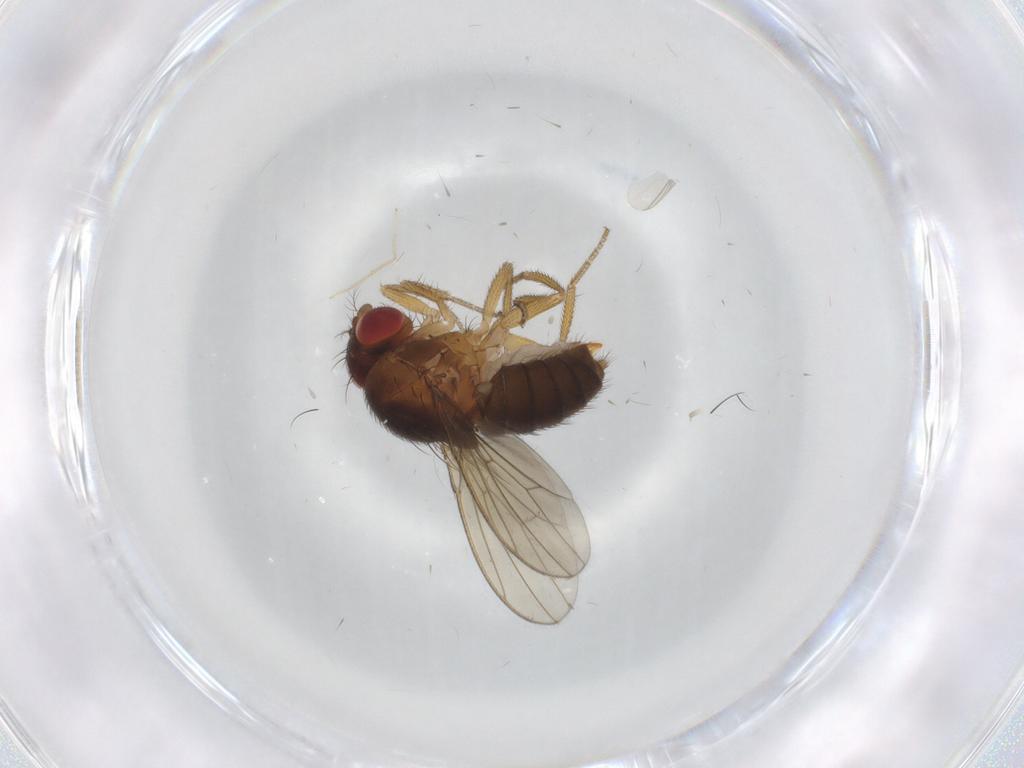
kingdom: Animalia
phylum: Arthropoda
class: Insecta
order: Diptera
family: Drosophilidae
